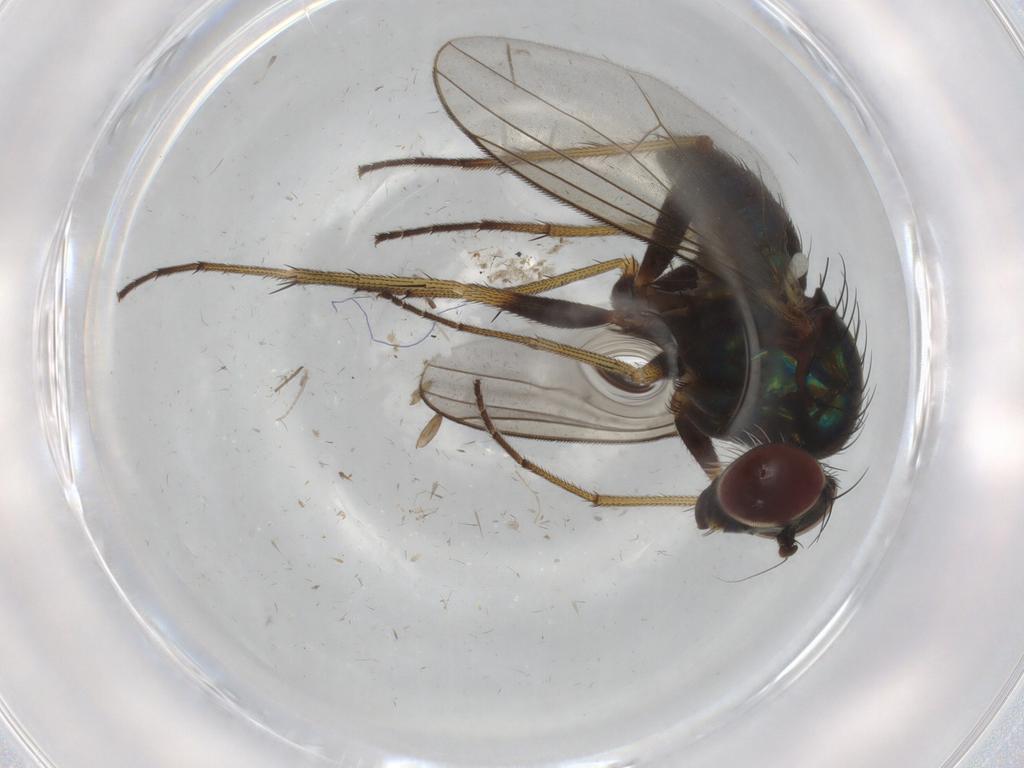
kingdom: Animalia
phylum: Arthropoda
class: Insecta
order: Diptera
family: Dolichopodidae
